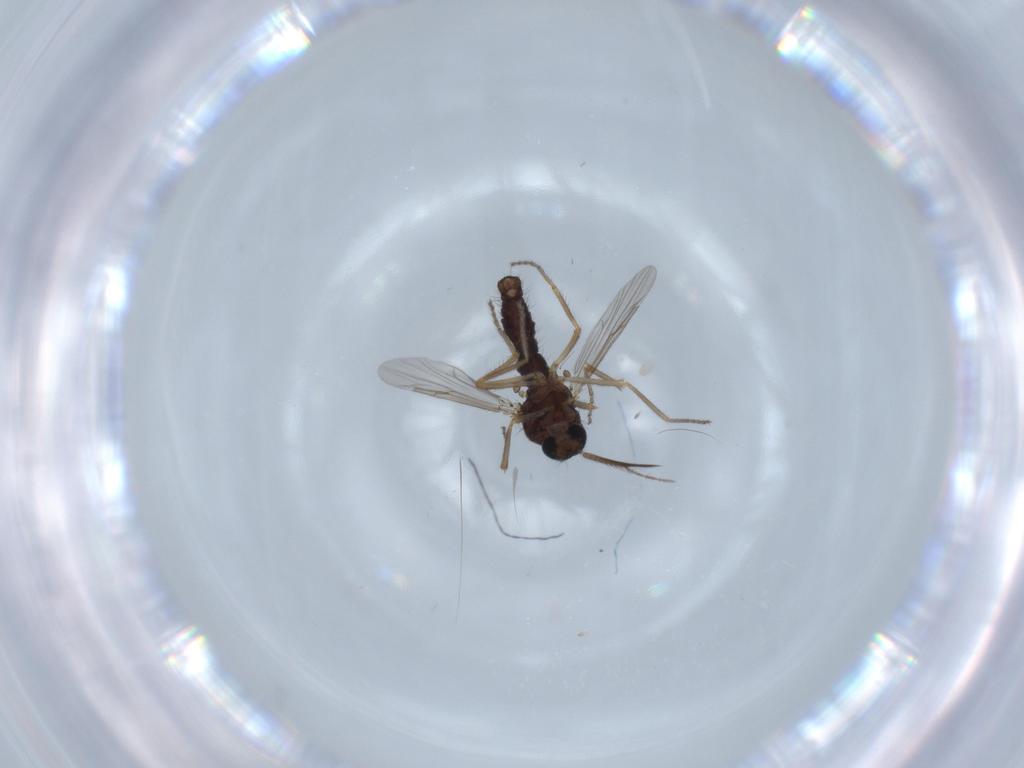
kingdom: Animalia
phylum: Arthropoda
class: Insecta
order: Diptera
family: Ceratopogonidae
